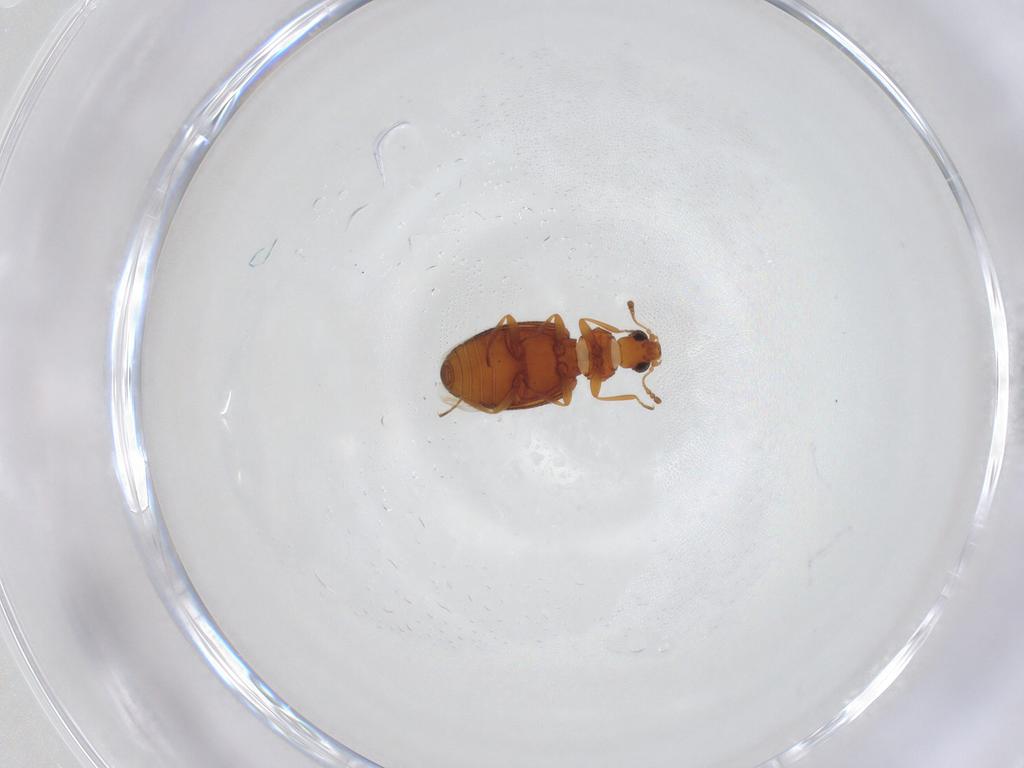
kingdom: Animalia
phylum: Arthropoda
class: Insecta
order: Coleoptera
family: Latridiidae
